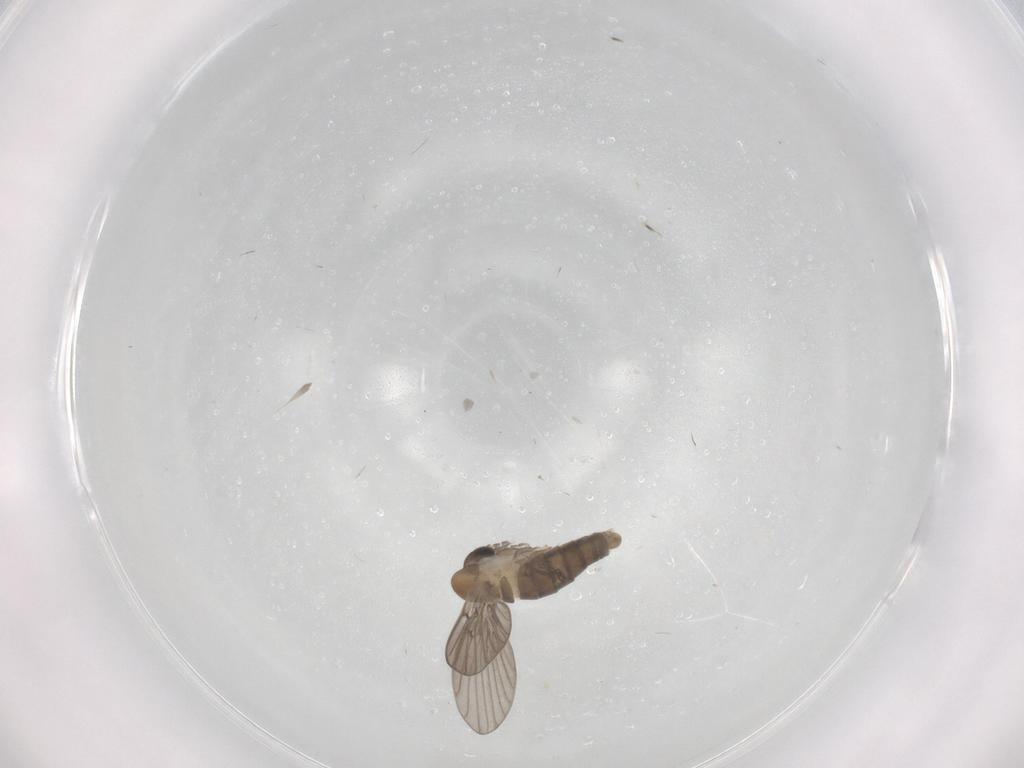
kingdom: Animalia
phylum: Arthropoda
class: Insecta
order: Diptera
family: Psychodidae
